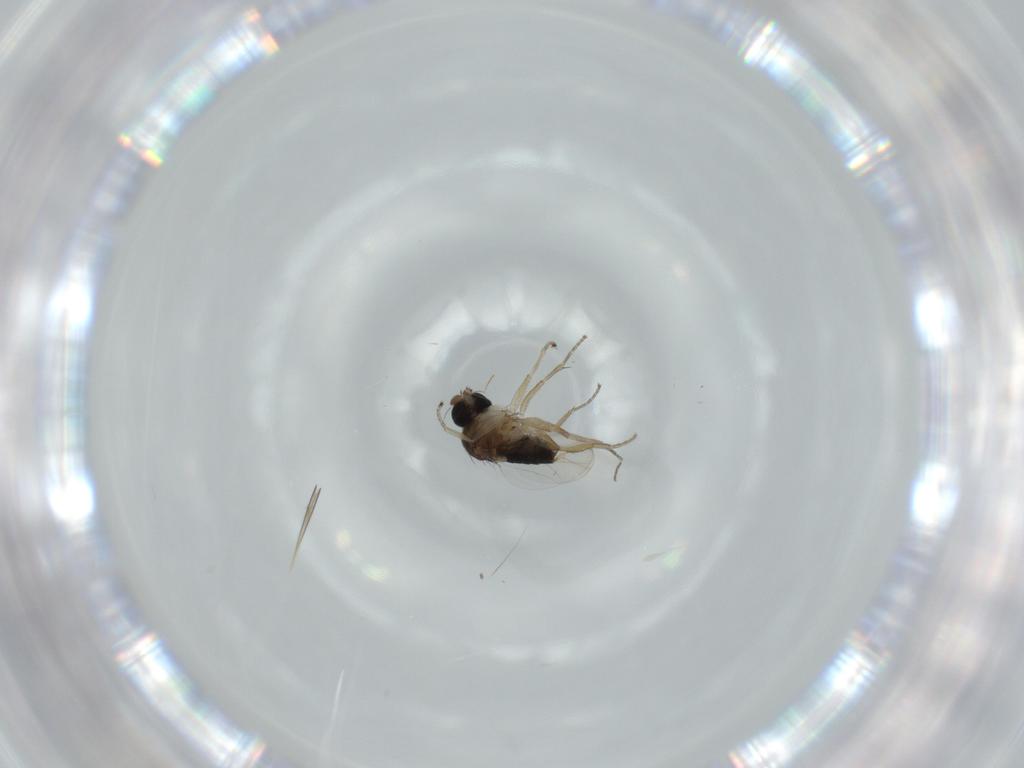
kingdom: Animalia
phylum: Arthropoda
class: Insecta
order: Diptera
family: Phoridae
